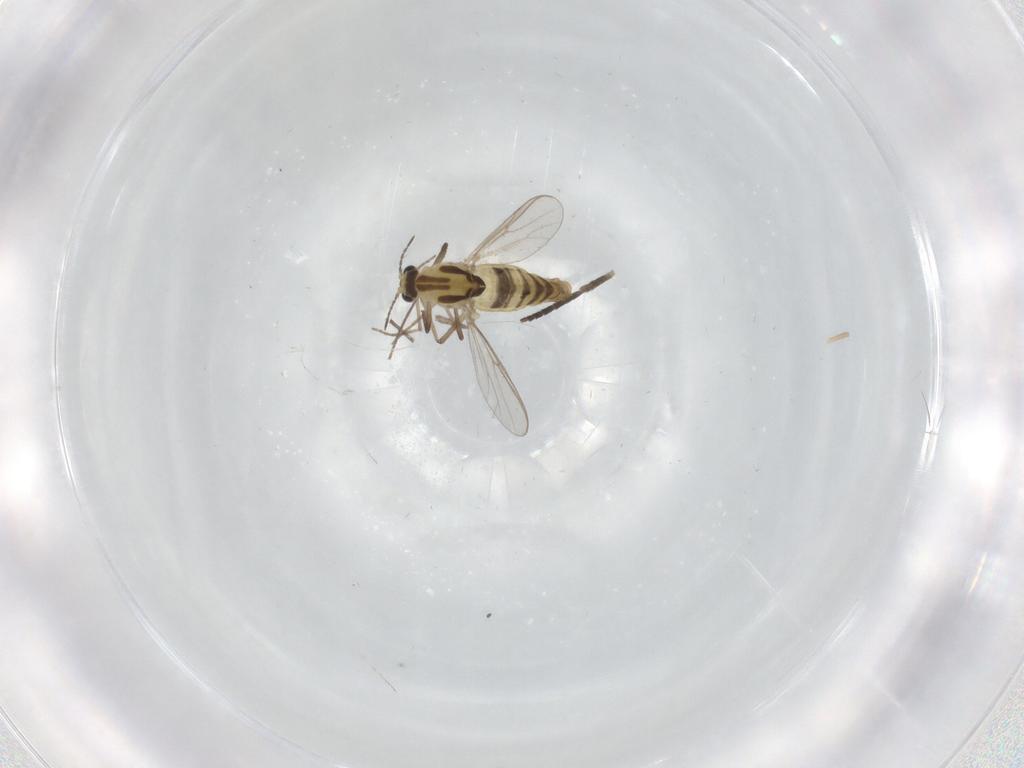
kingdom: Animalia
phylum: Arthropoda
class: Insecta
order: Diptera
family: Chironomidae
